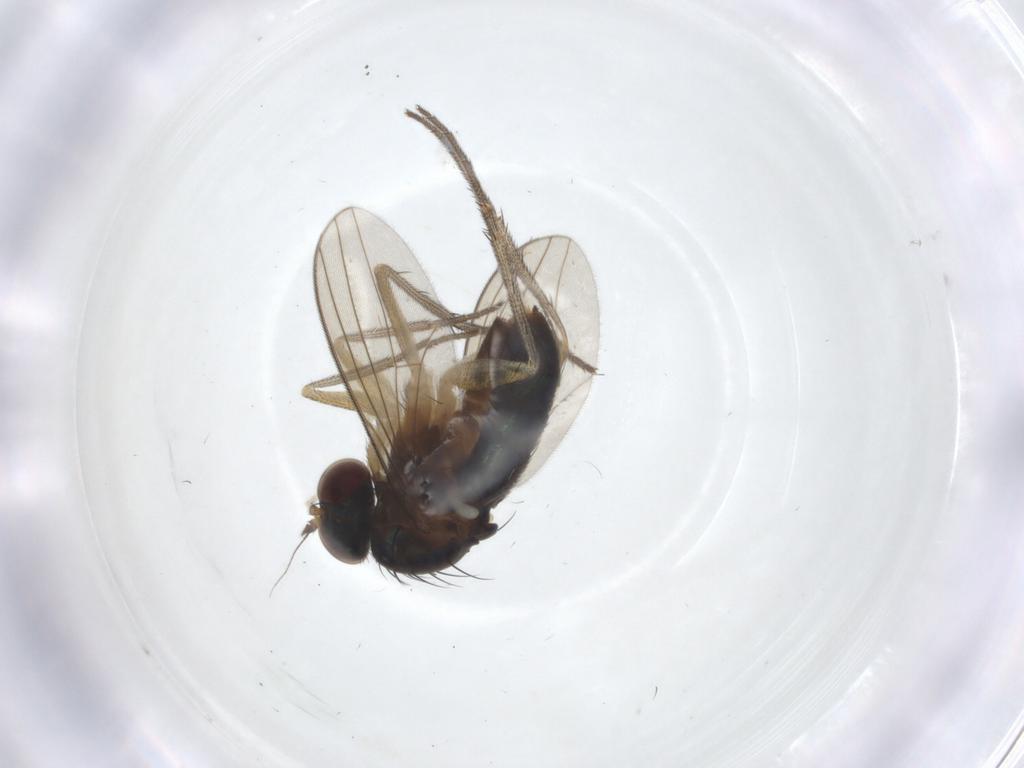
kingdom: Animalia
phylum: Arthropoda
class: Insecta
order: Diptera
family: Dolichopodidae
